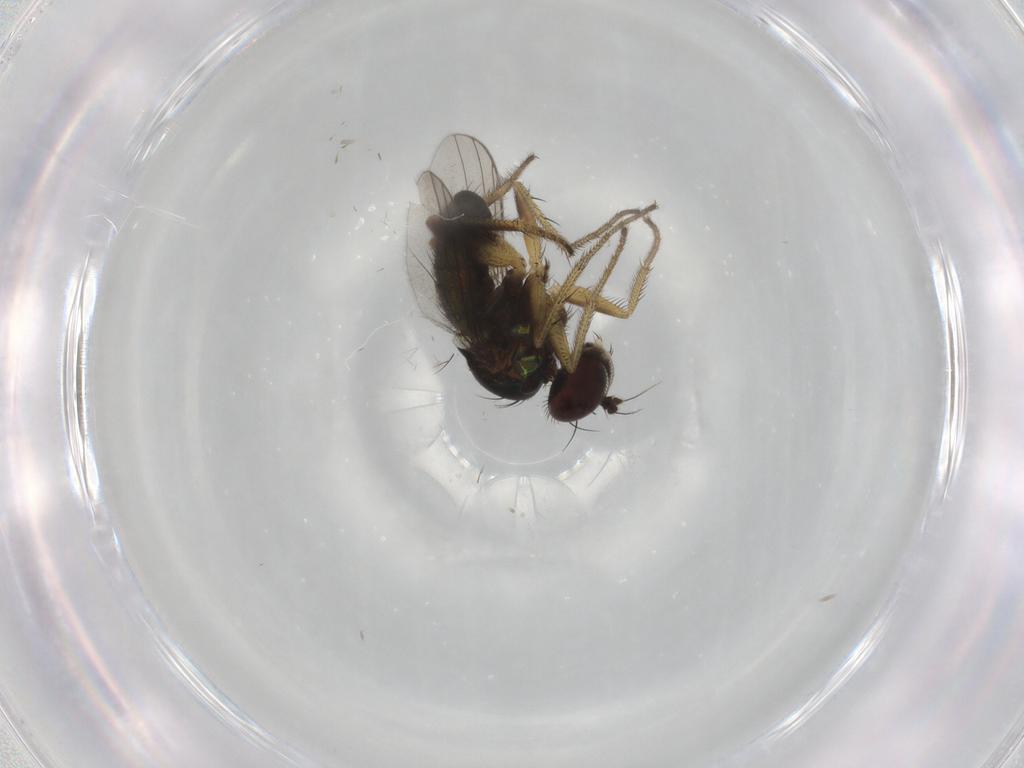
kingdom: Animalia
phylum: Arthropoda
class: Insecta
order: Diptera
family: Dolichopodidae
